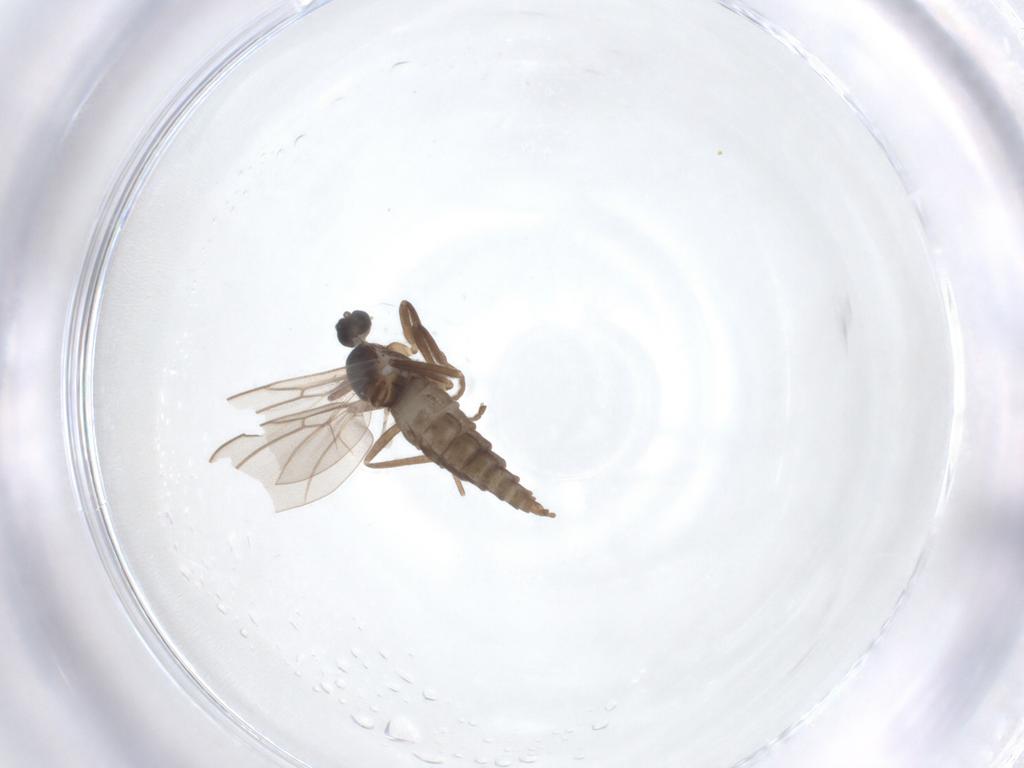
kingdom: Animalia
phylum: Arthropoda
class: Insecta
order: Diptera
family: Cecidomyiidae
